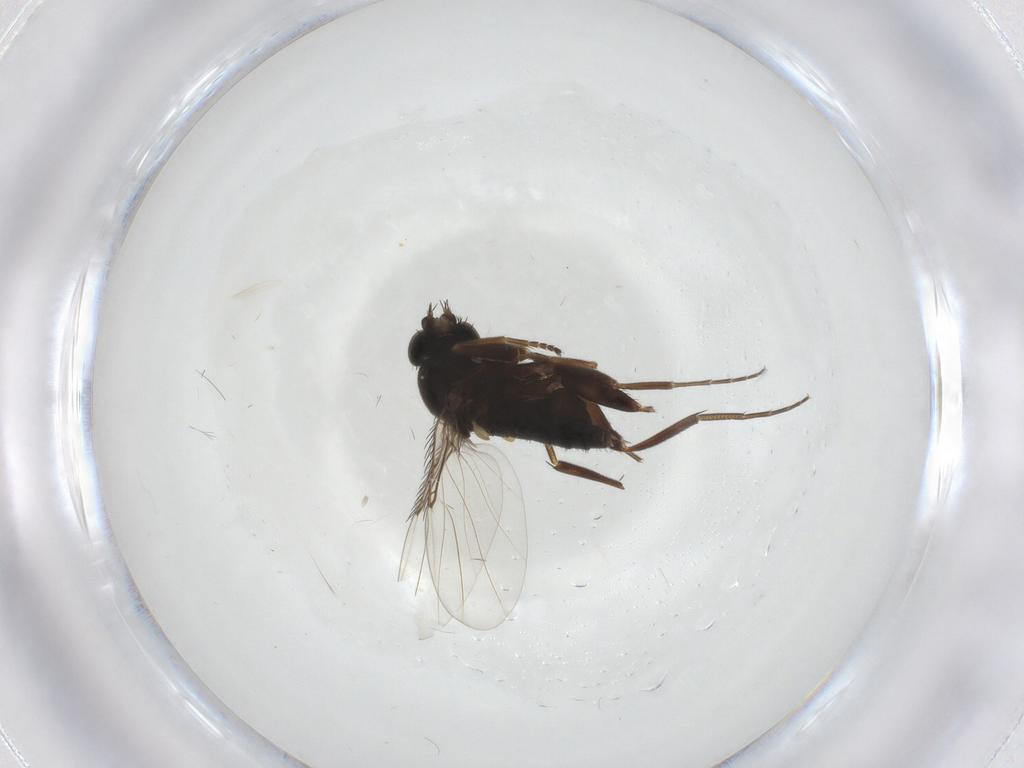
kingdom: Animalia
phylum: Arthropoda
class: Insecta
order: Diptera
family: Phoridae
